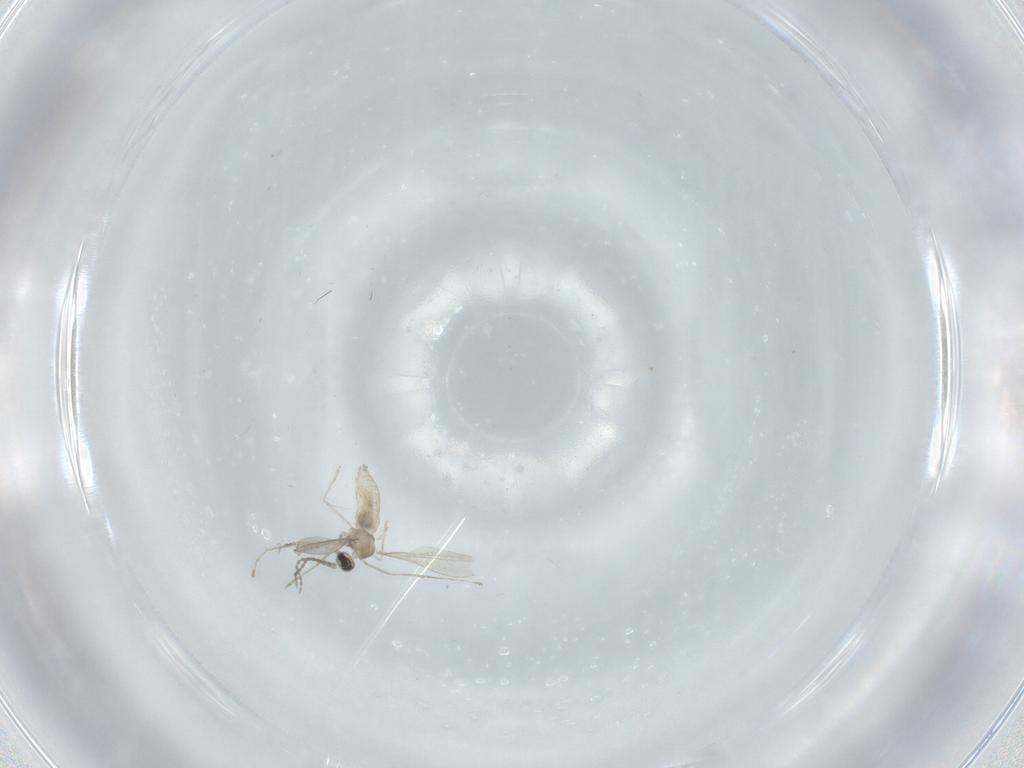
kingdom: Animalia
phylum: Arthropoda
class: Insecta
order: Diptera
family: Cecidomyiidae
